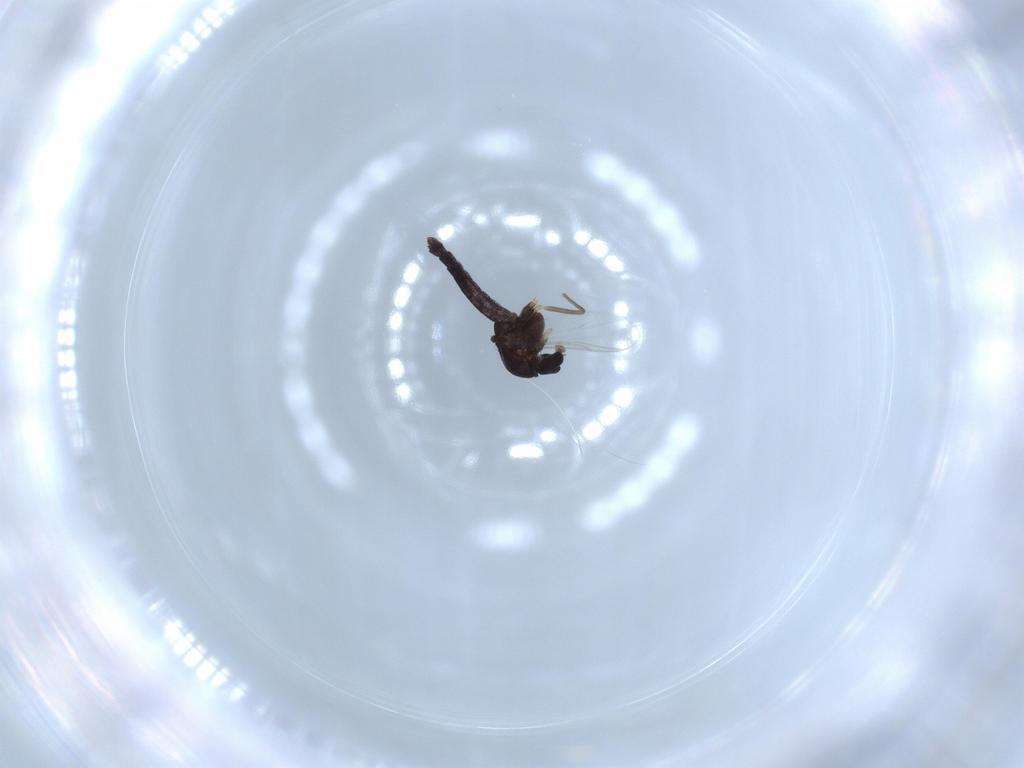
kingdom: Animalia
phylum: Arthropoda
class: Insecta
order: Diptera
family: Chironomidae
